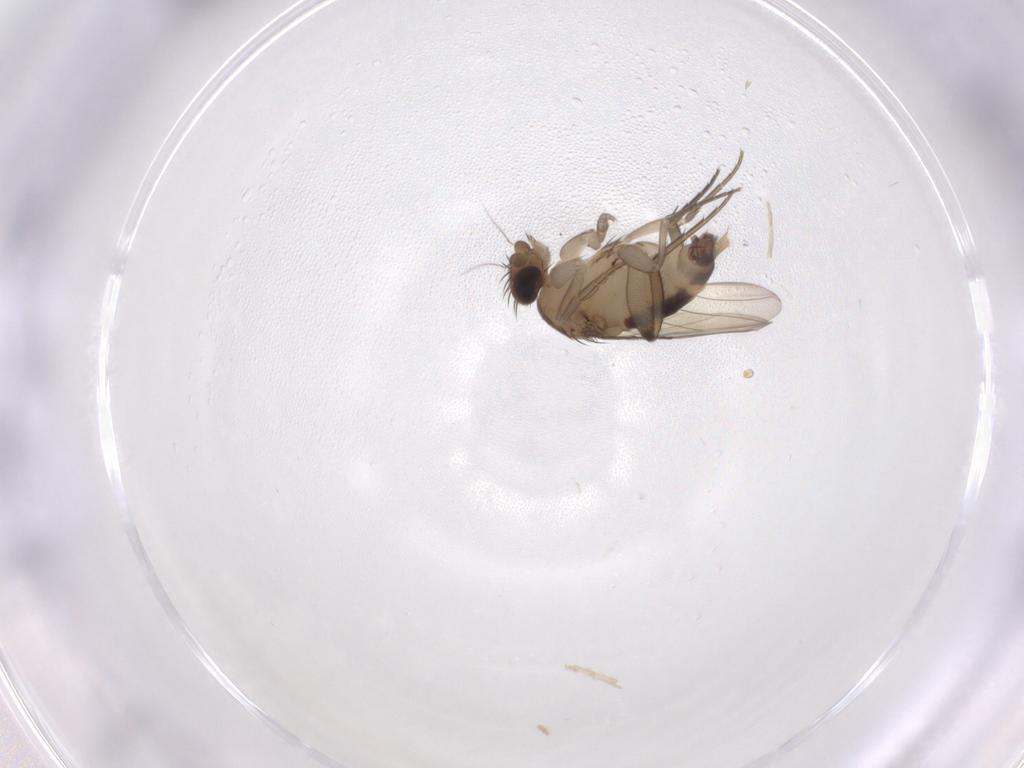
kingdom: Animalia
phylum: Arthropoda
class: Insecta
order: Diptera
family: Phoridae
